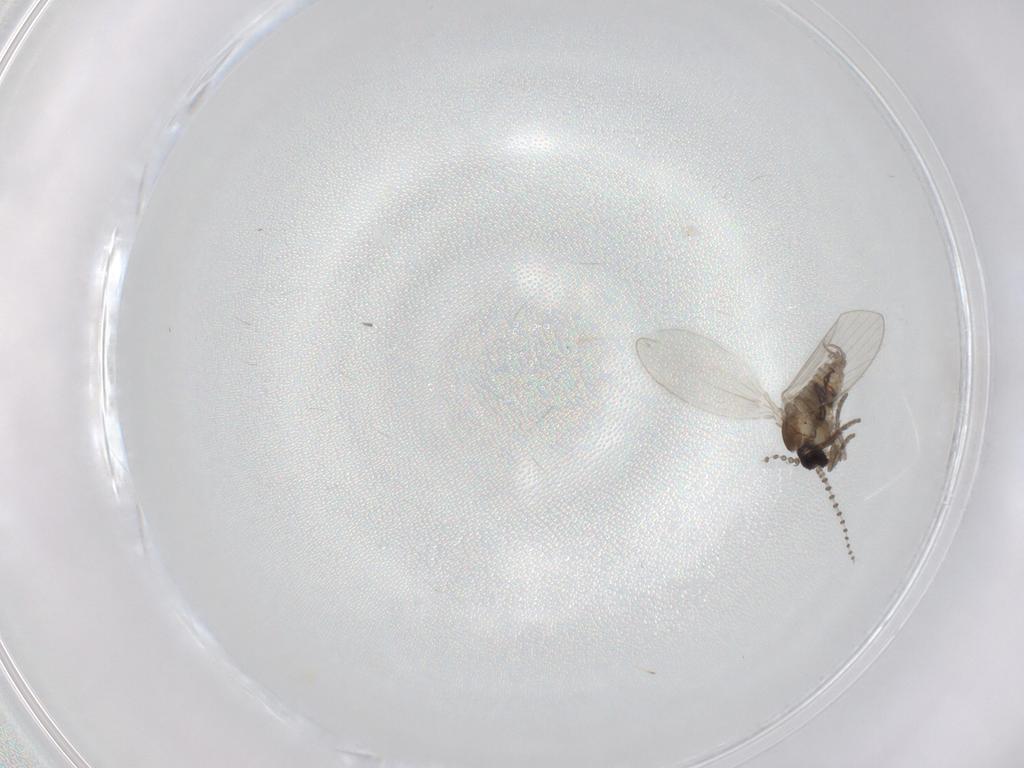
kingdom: Animalia
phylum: Arthropoda
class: Insecta
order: Diptera
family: Psychodidae
